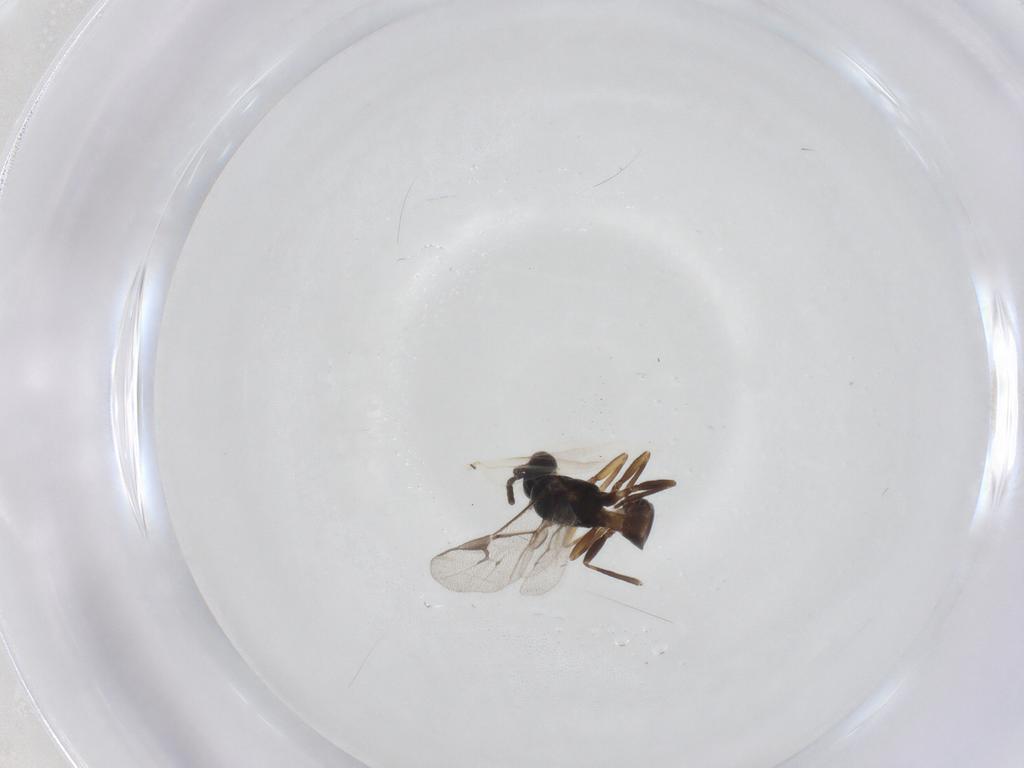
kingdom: Animalia
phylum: Arthropoda
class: Insecta
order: Hymenoptera
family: Braconidae
